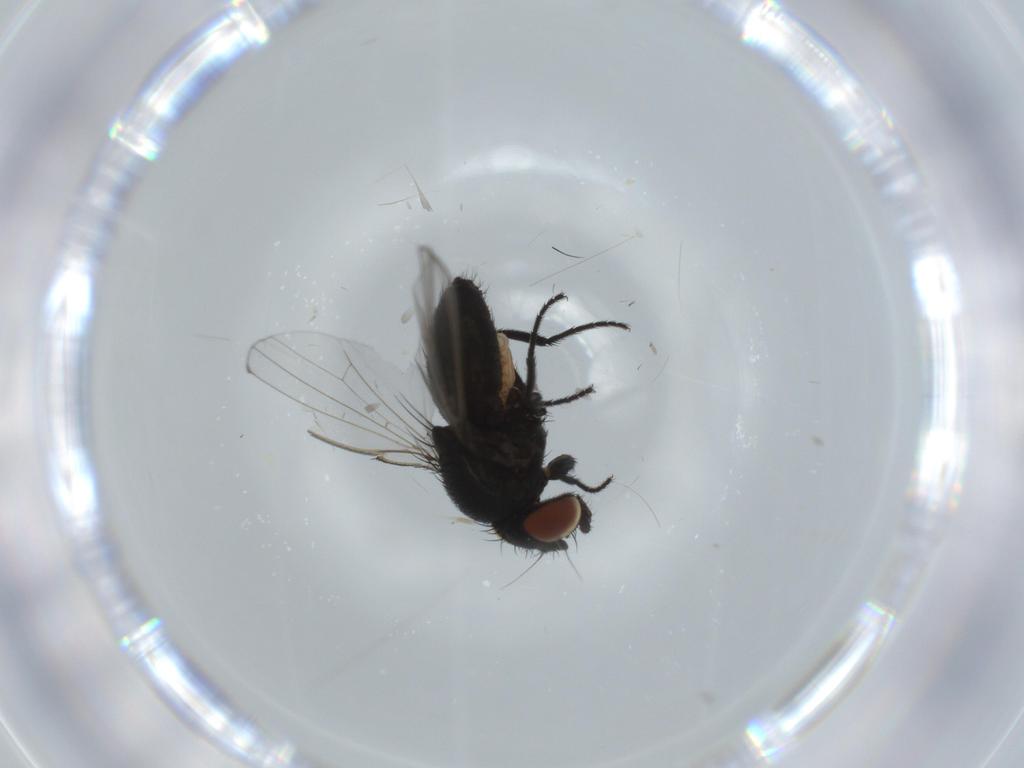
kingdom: Animalia
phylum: Arthropoda
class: Insecta
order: Diptera
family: Milichiidae
